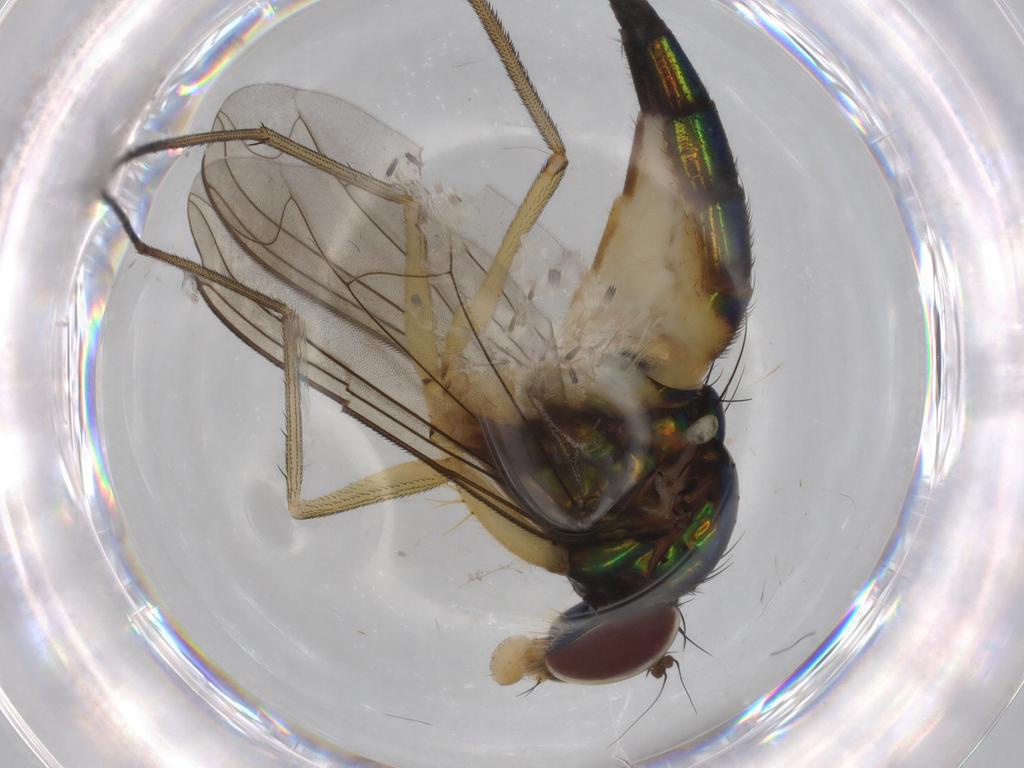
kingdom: Animalia
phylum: Arthropoda
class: Insecta
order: Diptera
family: Dolichopodidae
